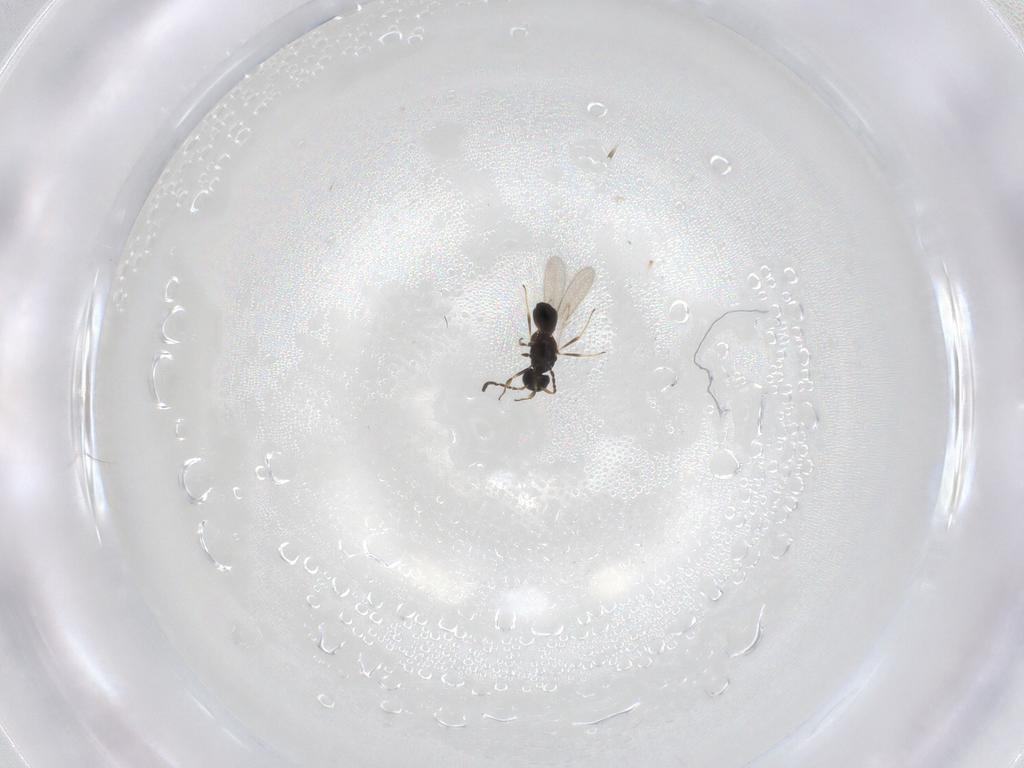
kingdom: Animalia
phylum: Arthropoda
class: Insecta
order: Hymenoptera
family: Scelionidae
